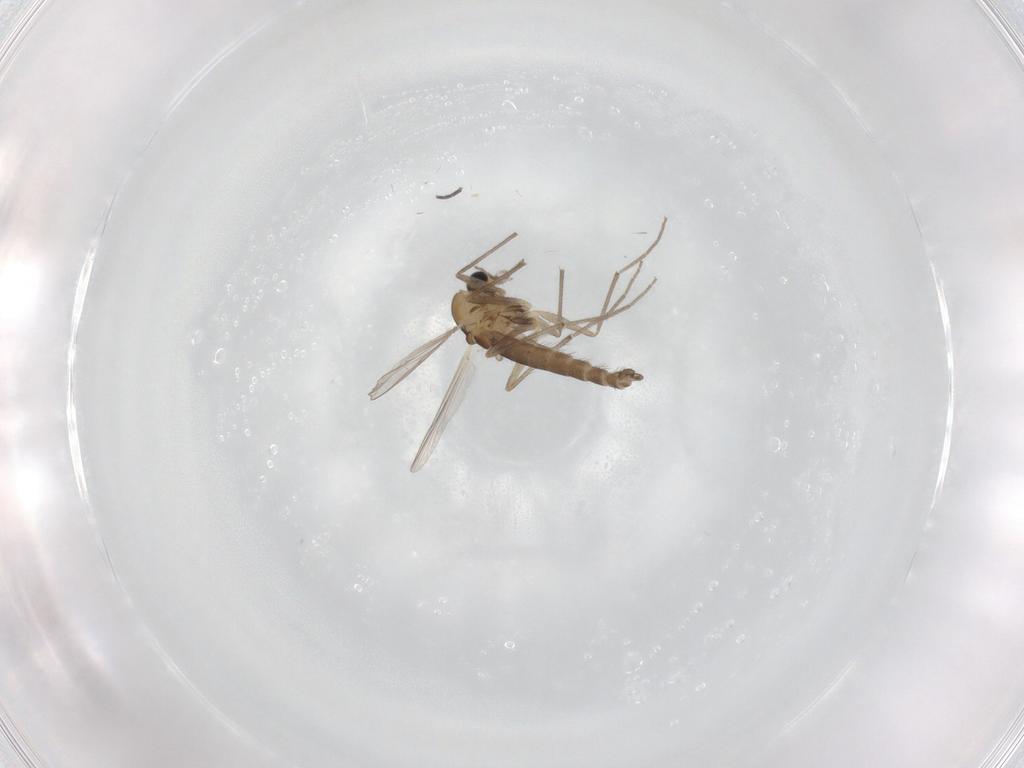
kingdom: Animalia
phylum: Arthropoda
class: Insecta
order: Diptera
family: Chironomidae
